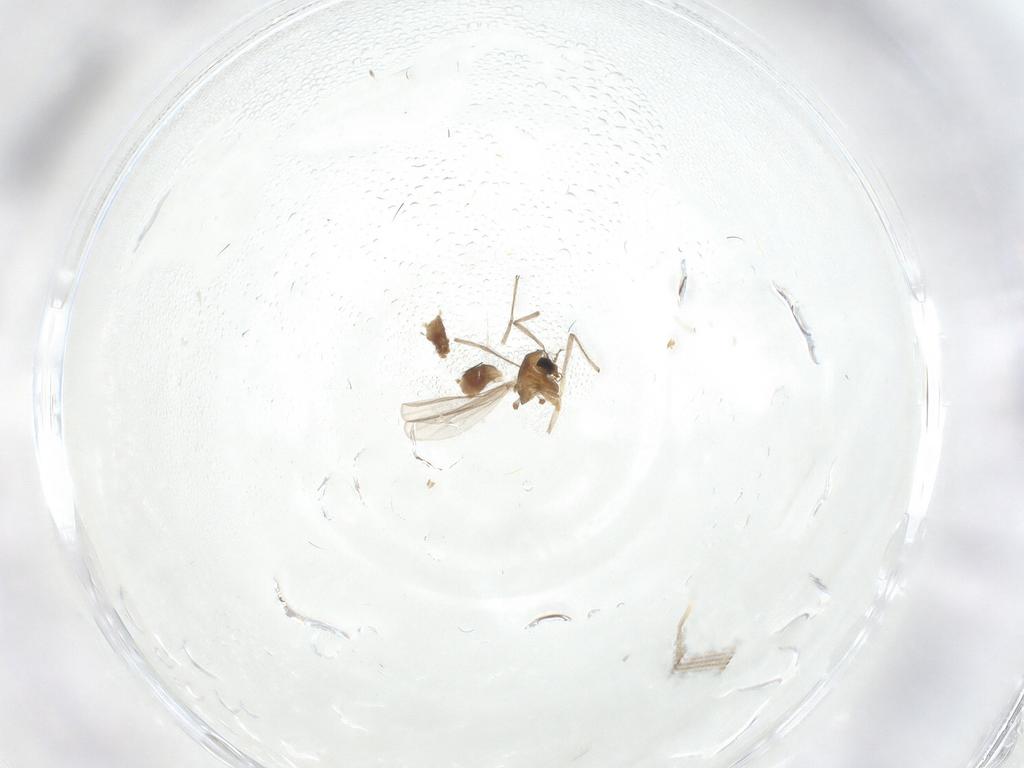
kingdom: Animalia
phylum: Arthropoda
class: Insecta
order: Diptera
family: Chironomidae
